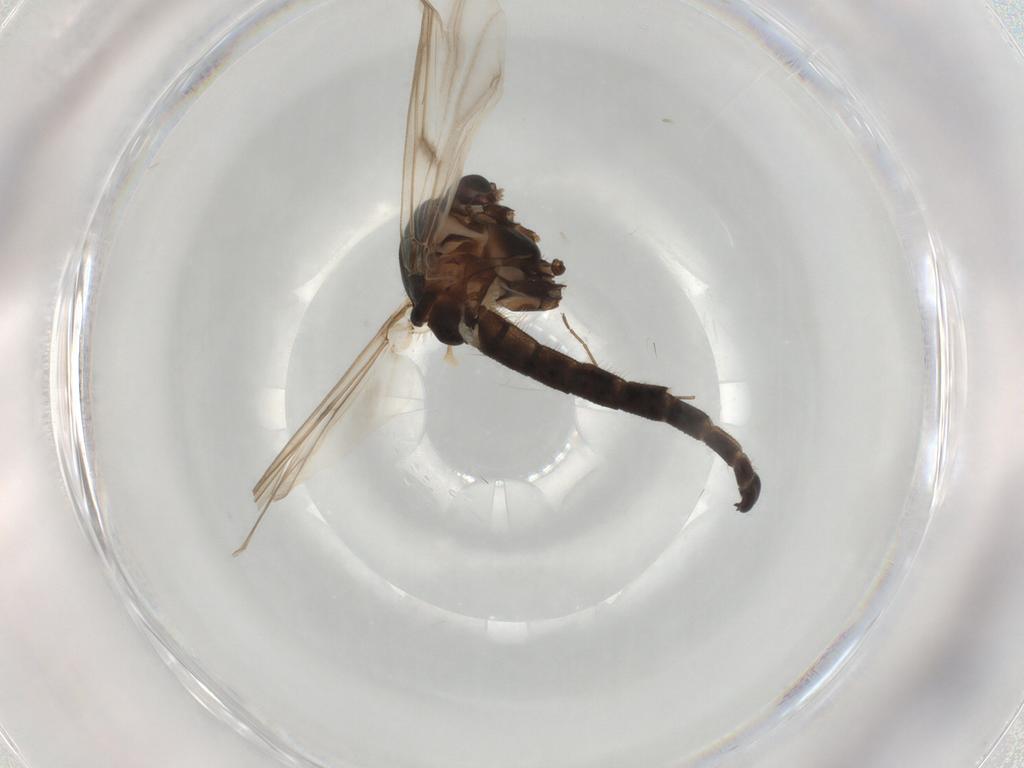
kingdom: Animalia
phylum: Arthropoda
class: Insecta
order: Diptera
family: Chironomidae
